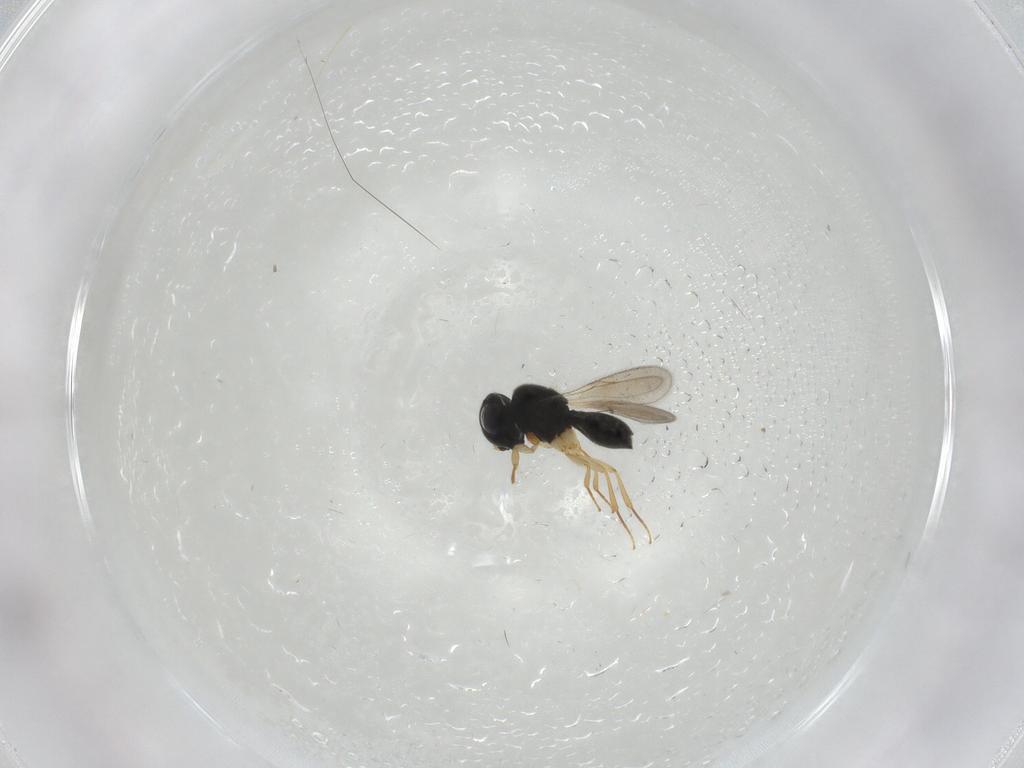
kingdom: Animalia
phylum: Arthropoda
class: Insecta
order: Hymenoptera
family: Scelionidae
